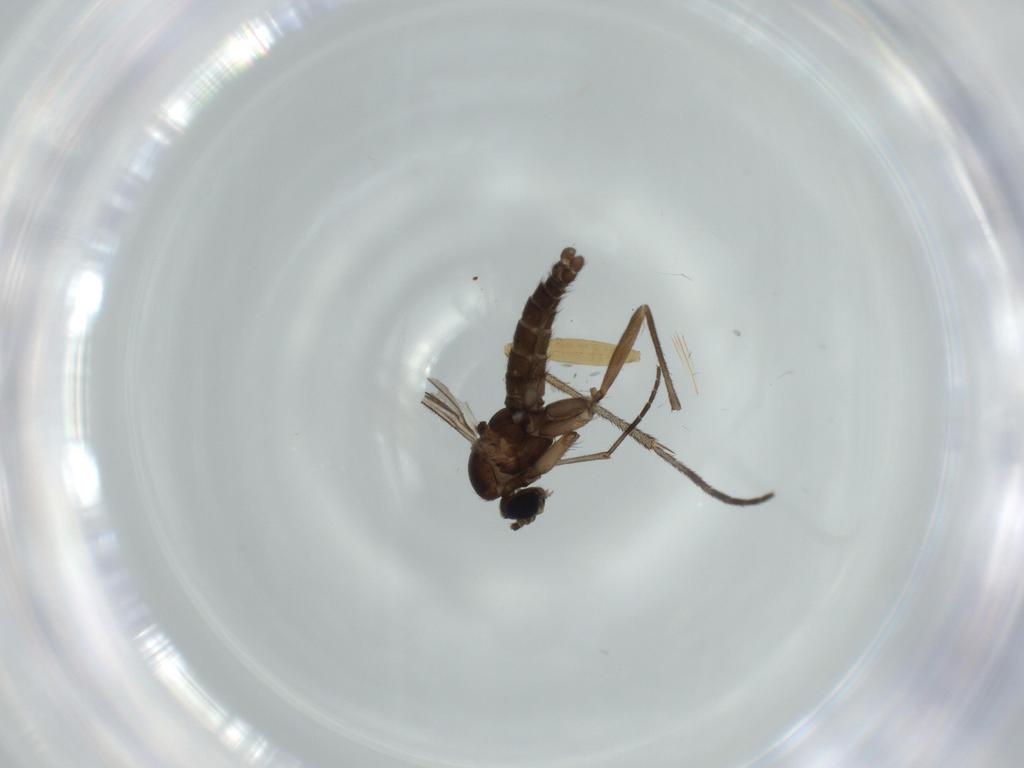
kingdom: Animalia
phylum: Arthropoda
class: Insecta
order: Diptera
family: Sciaridae
